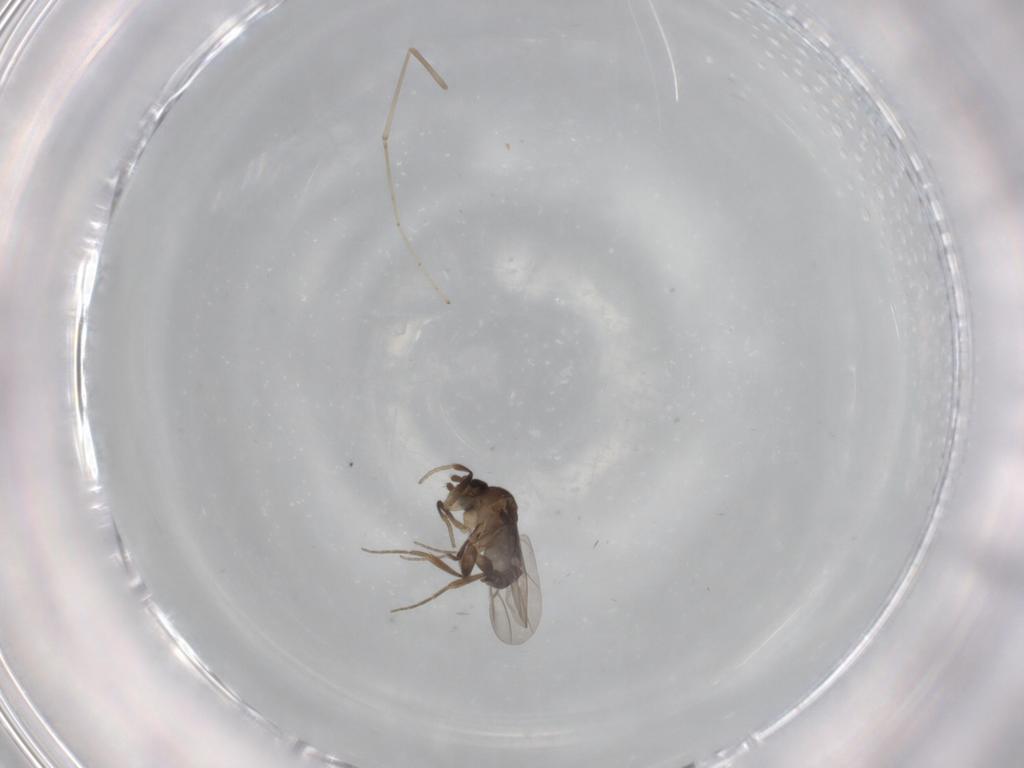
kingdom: Animalia
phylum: Arthropoda
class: Insecta
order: Diptera
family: Phoridae
